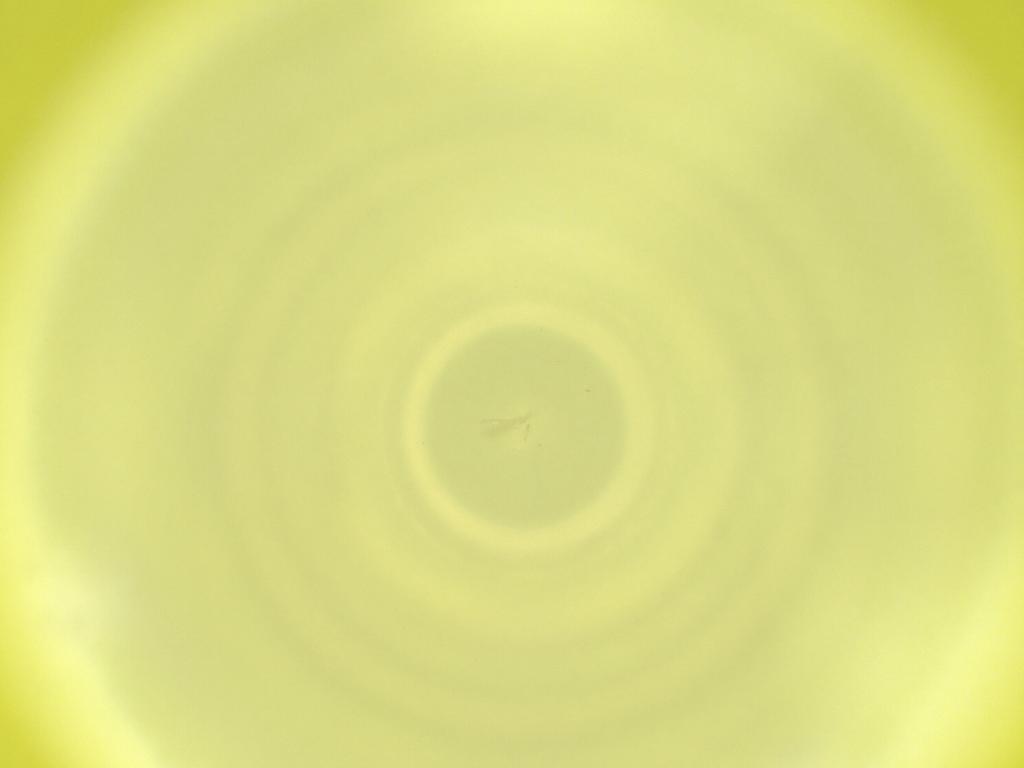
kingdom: Animalia
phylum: Arthropoda
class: Insecta
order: Diptera
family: Cecidomyiidae
